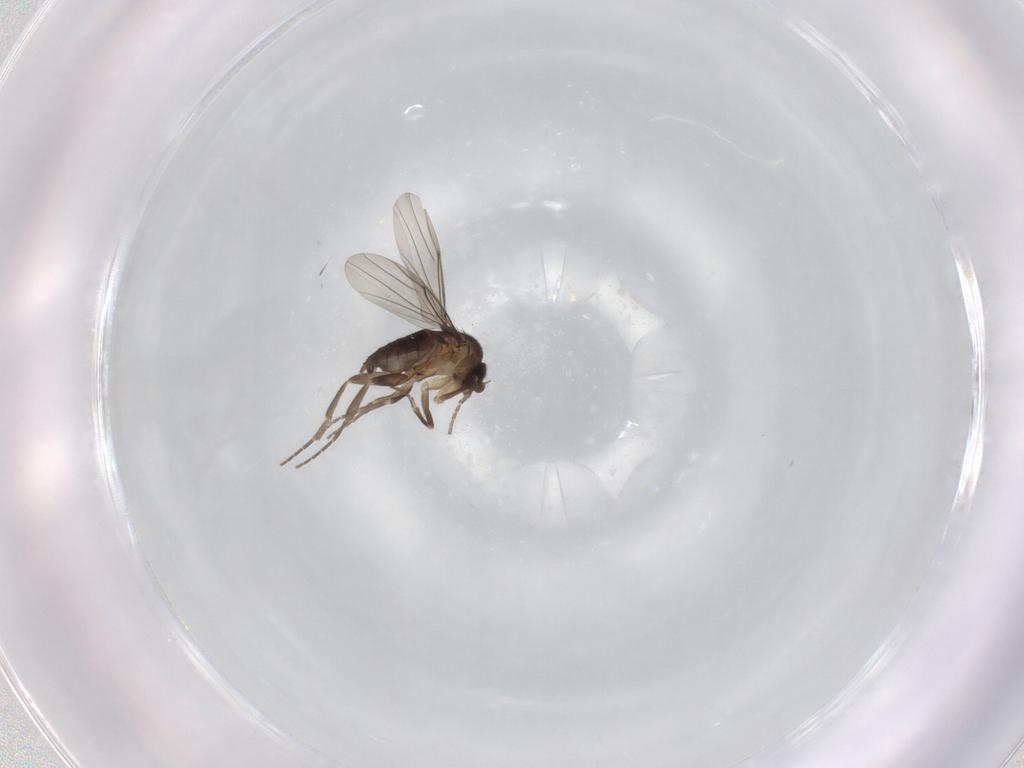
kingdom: Animalia
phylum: Arthropoda
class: Insecta
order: Diptera
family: Phoridae
